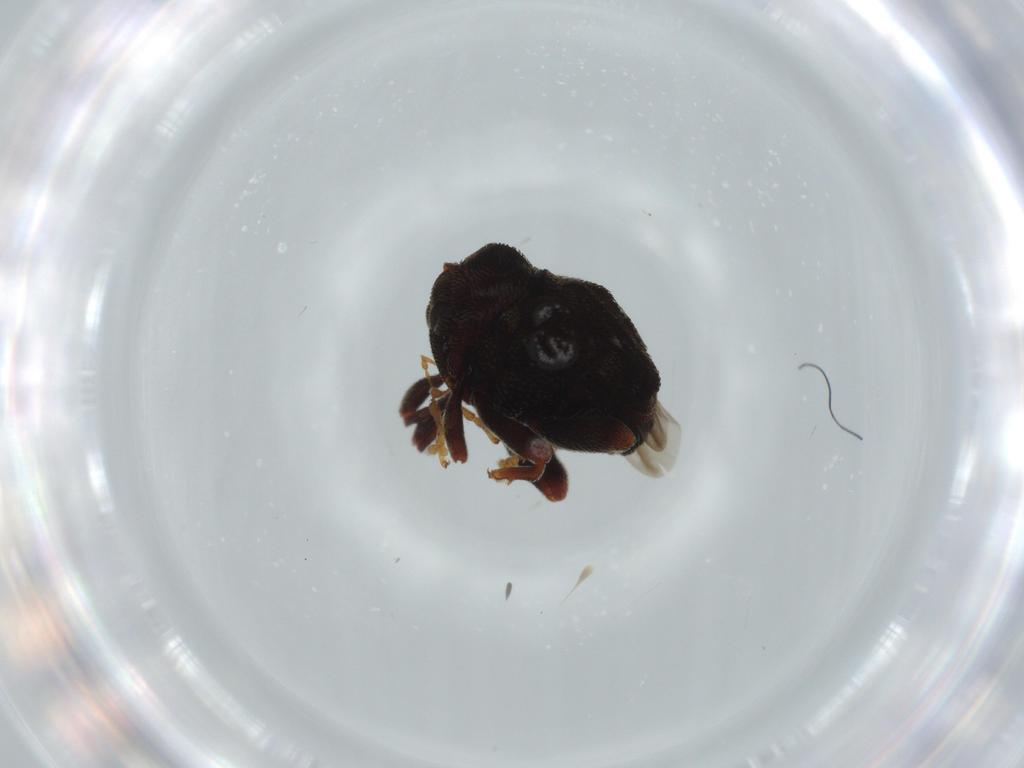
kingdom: Animalia
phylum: Arthropoda
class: Insecta
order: Coleoptera
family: Curculionidae
